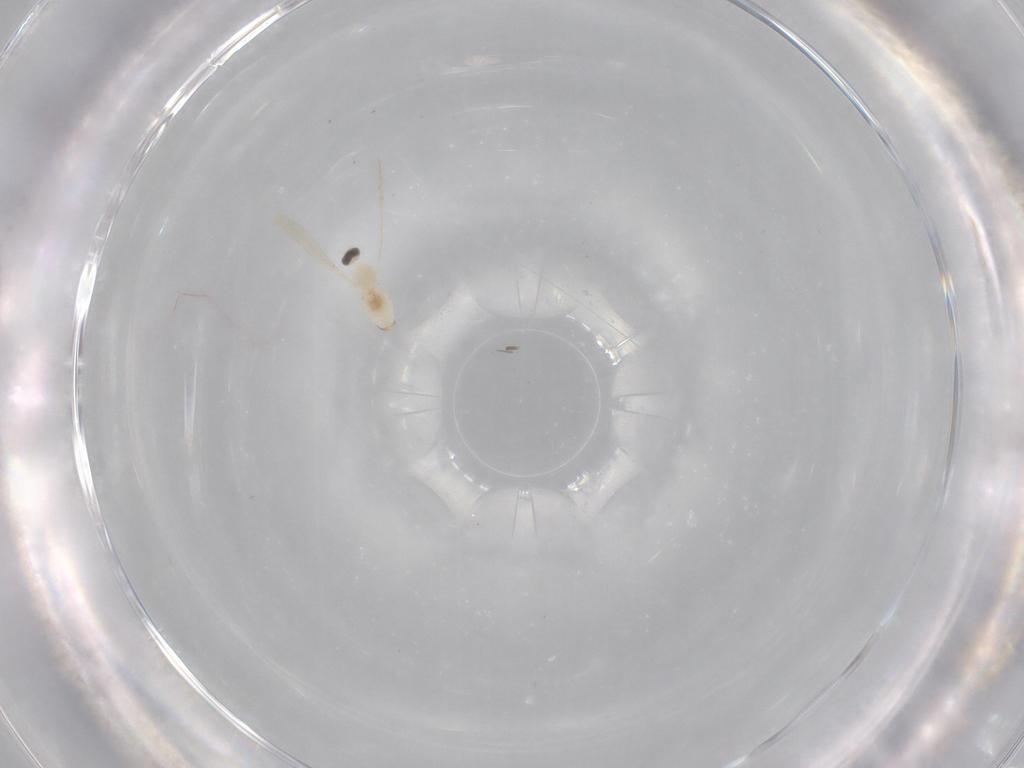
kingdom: Animalia
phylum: Arthropoda
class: Insecta
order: Diptera
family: Cecidomyiidae
